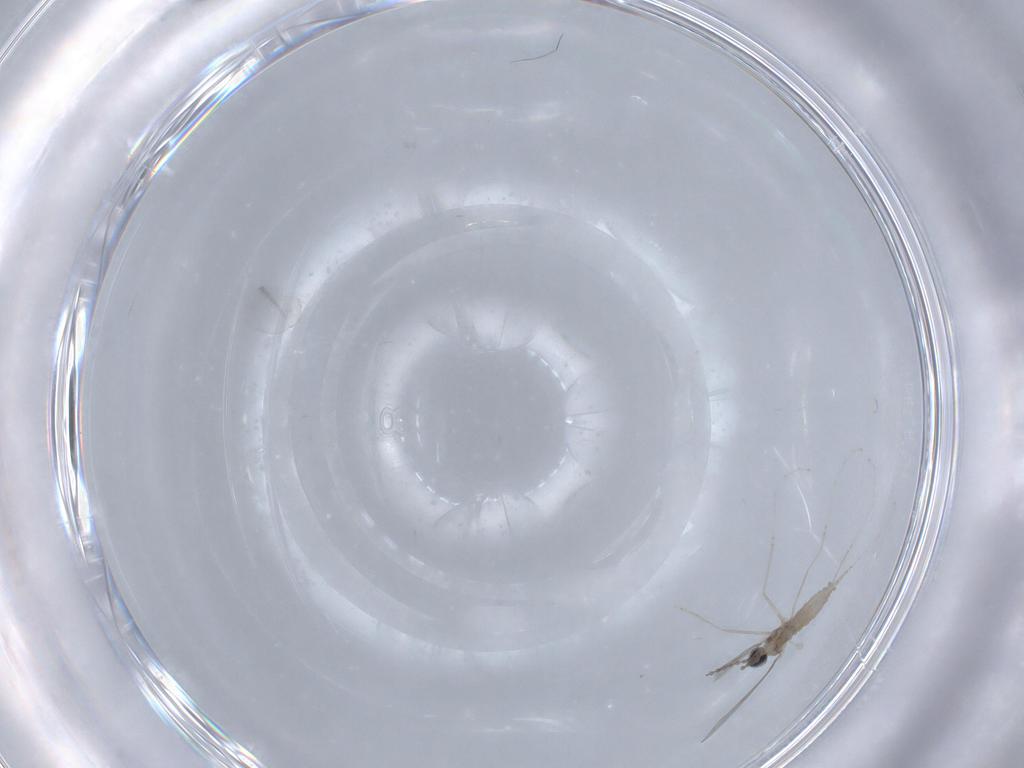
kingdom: Animalia
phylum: Arthropoda
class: Insecta
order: Diptera
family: Cecidomyiidae
